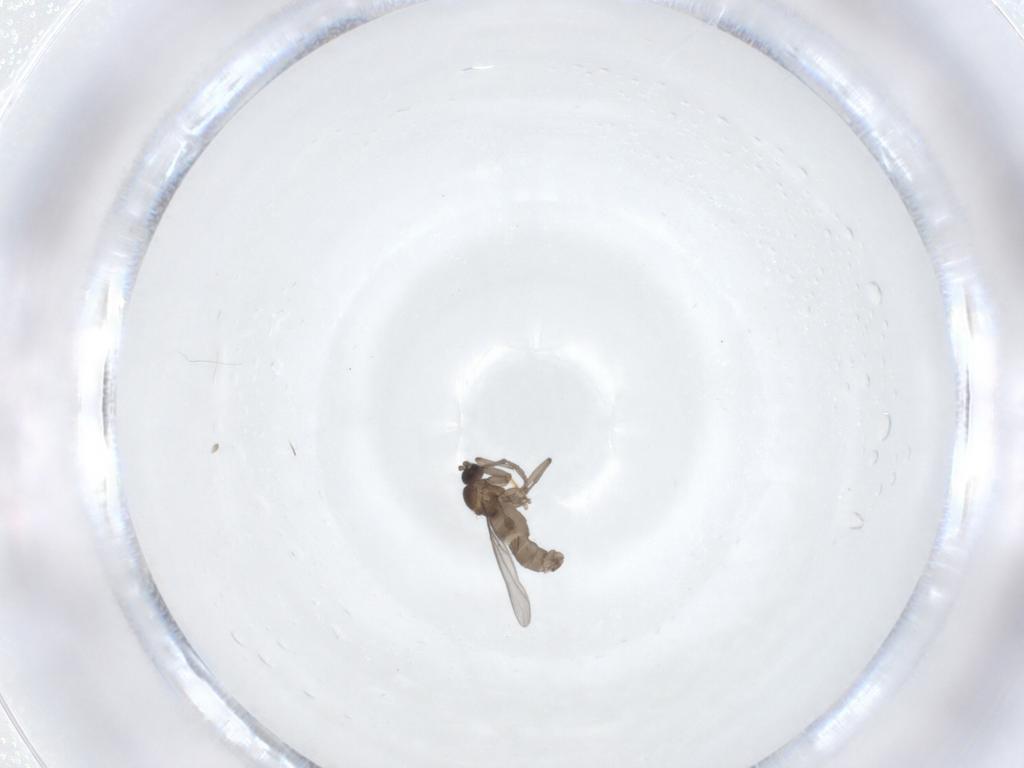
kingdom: Animalia
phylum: Arthropoda
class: Insecta
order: Diptera
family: Sciaridae
